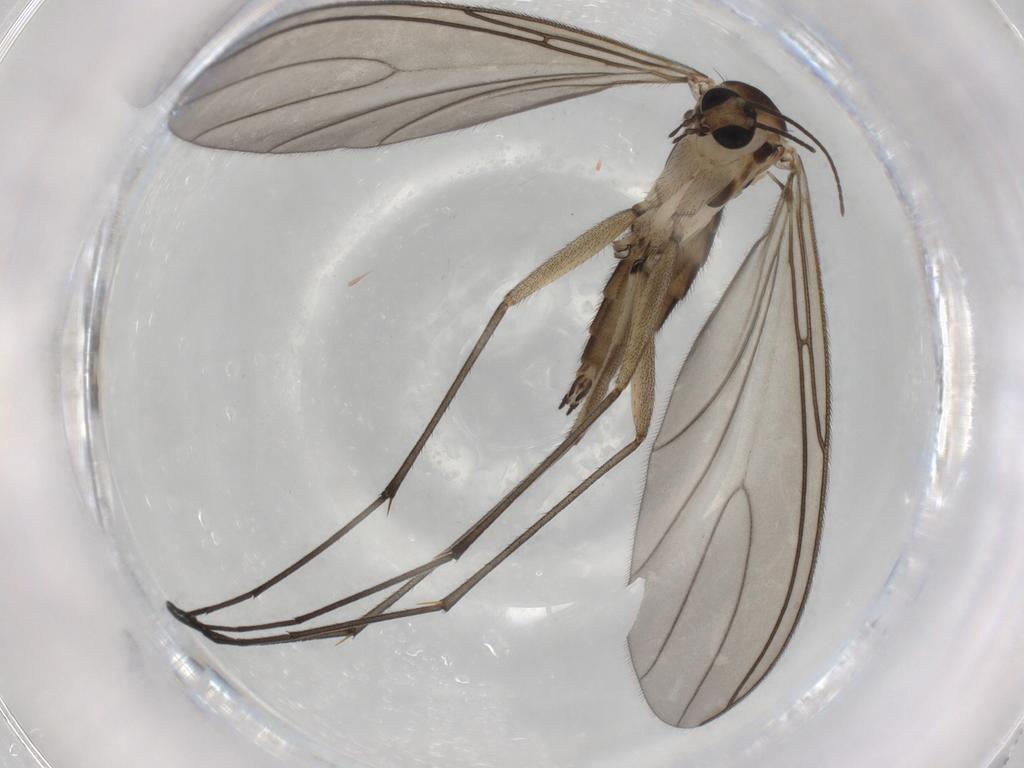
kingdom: Animalia
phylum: Arthropoda
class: Insecta
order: Diptera
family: Sciaridae
